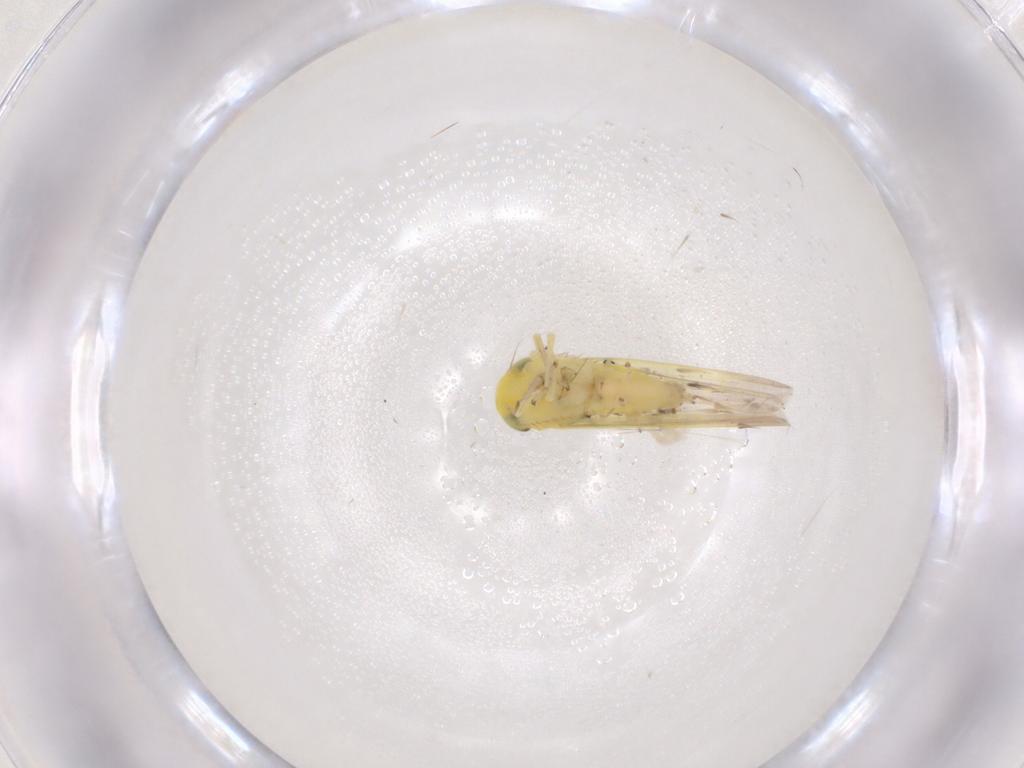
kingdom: Animalia
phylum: Arthropoda
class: Insecta
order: Hemiptera
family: Cicadellidae
